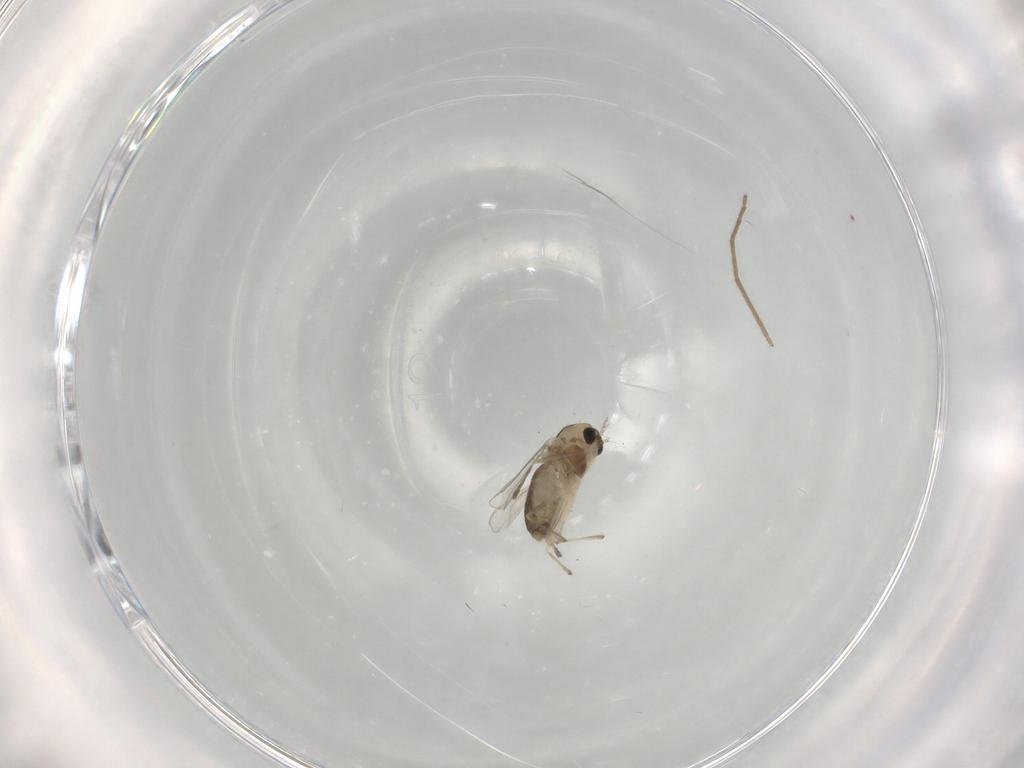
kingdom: Animalia
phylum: Arthropoda
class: Insecta
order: Diptera
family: Chironomidae
